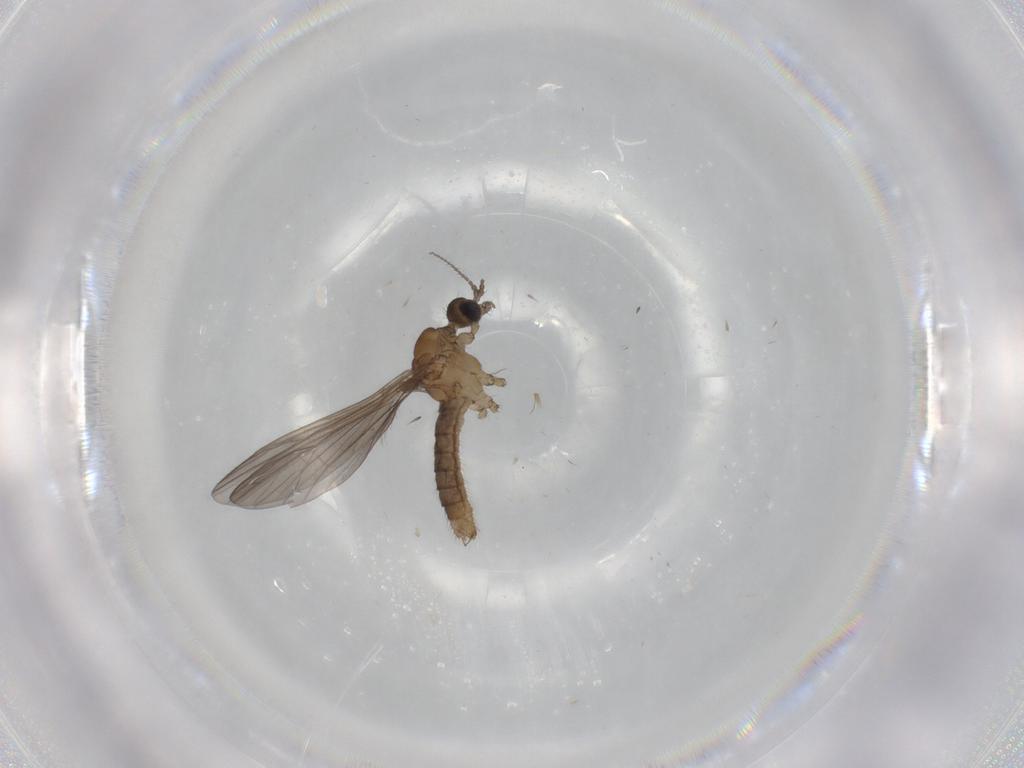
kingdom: Animalia
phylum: Arthropoda
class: Insecta
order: Diptera
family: Limoniidae
